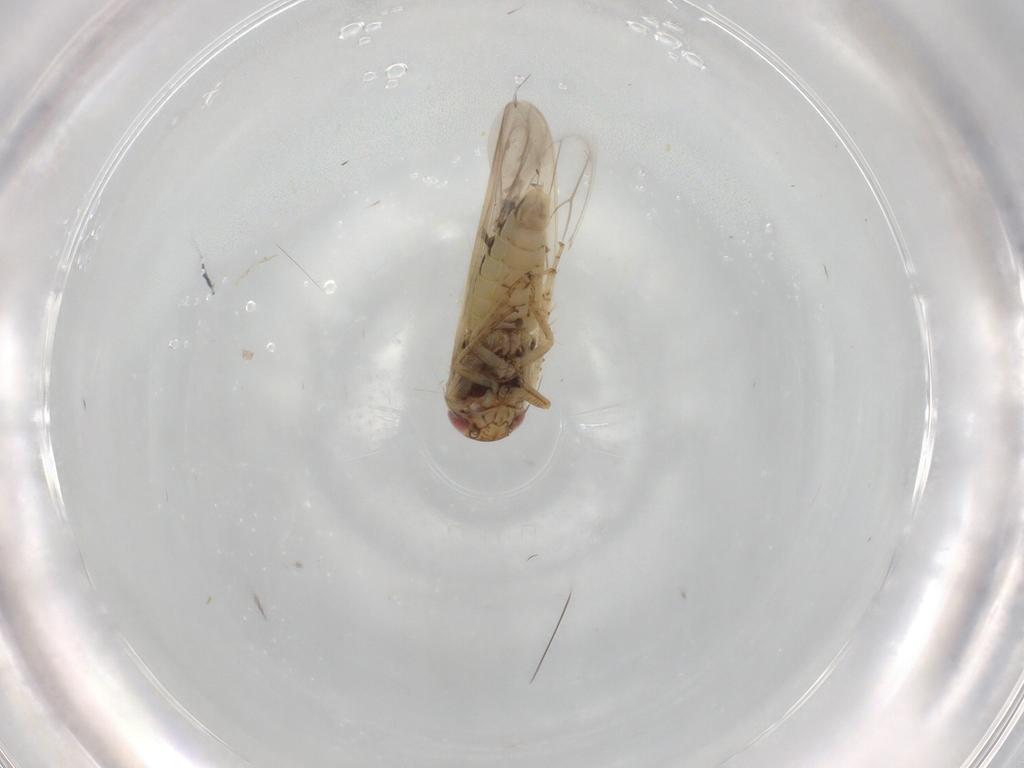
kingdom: Animalia
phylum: Arthropoda
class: Insecta
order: Hemiptera
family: Cicadellidae
